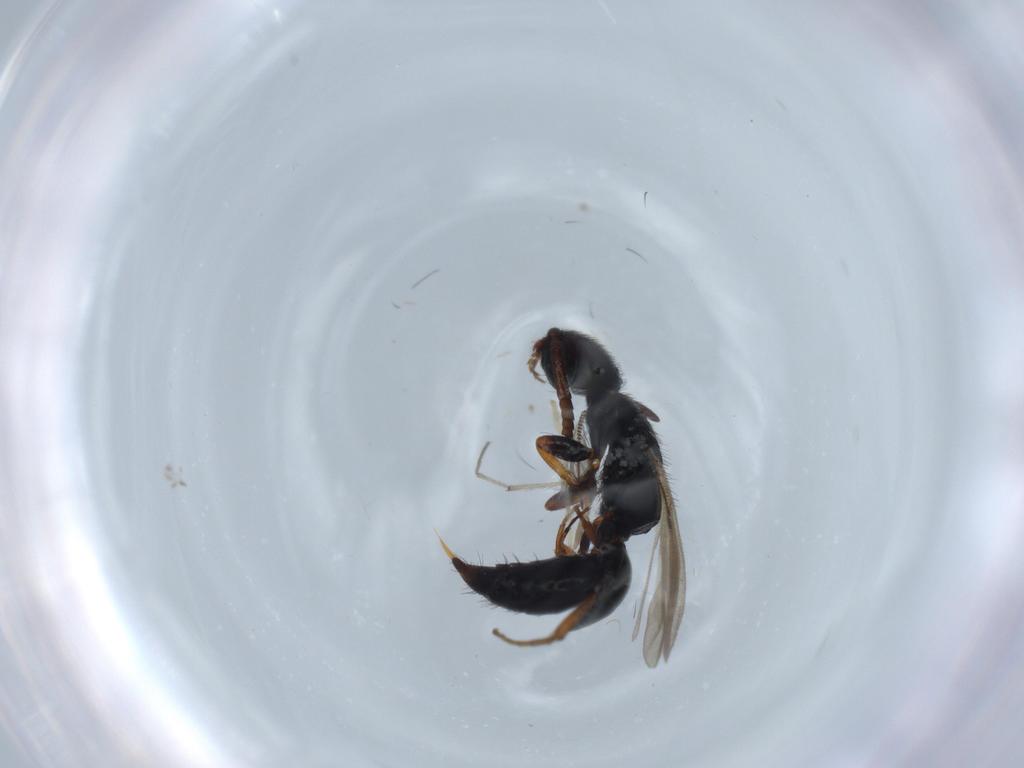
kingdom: Animalia
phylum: Arthropoda
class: Insecta
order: Hymenoptera
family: Bethylidae
